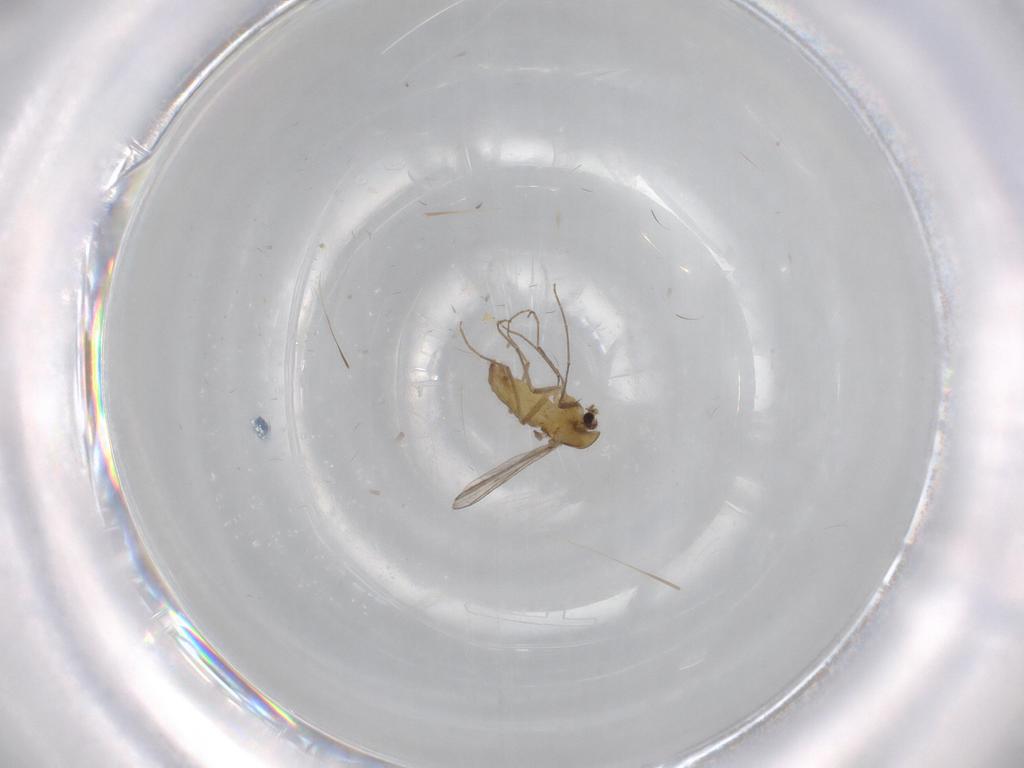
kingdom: Animalia
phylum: Arthropoda
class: Insecta
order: Diptera
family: Chironomidae
